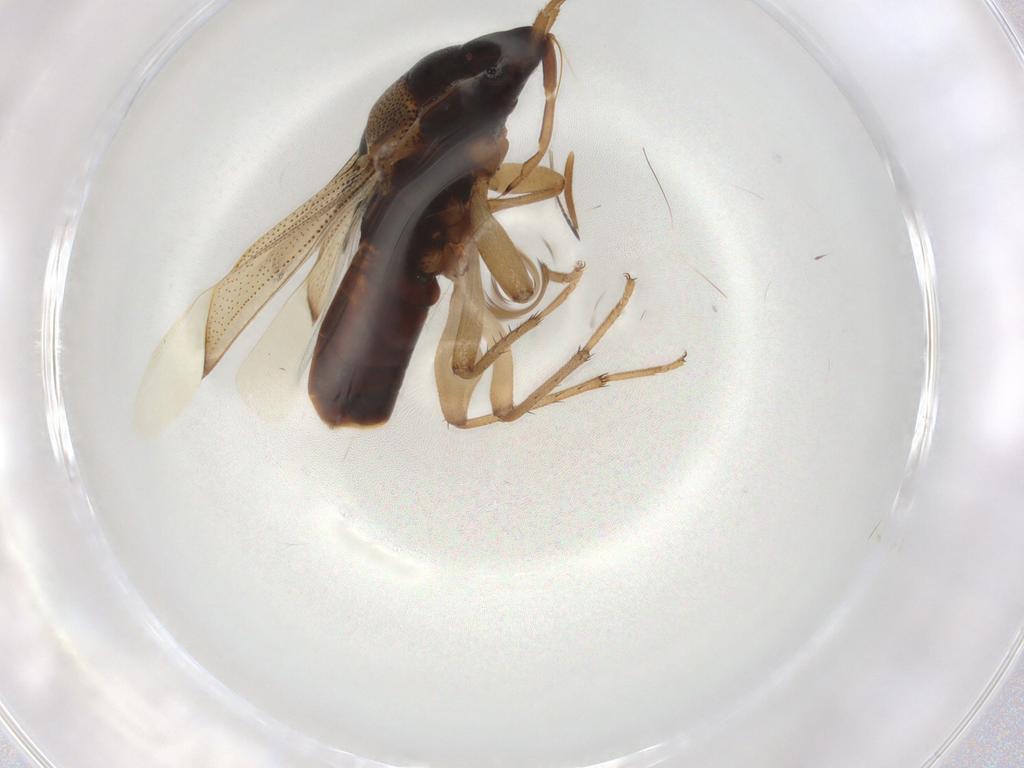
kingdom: Animalia
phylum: Arthropoda
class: Insecta
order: Hemiptera
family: Rhyparochromidae
